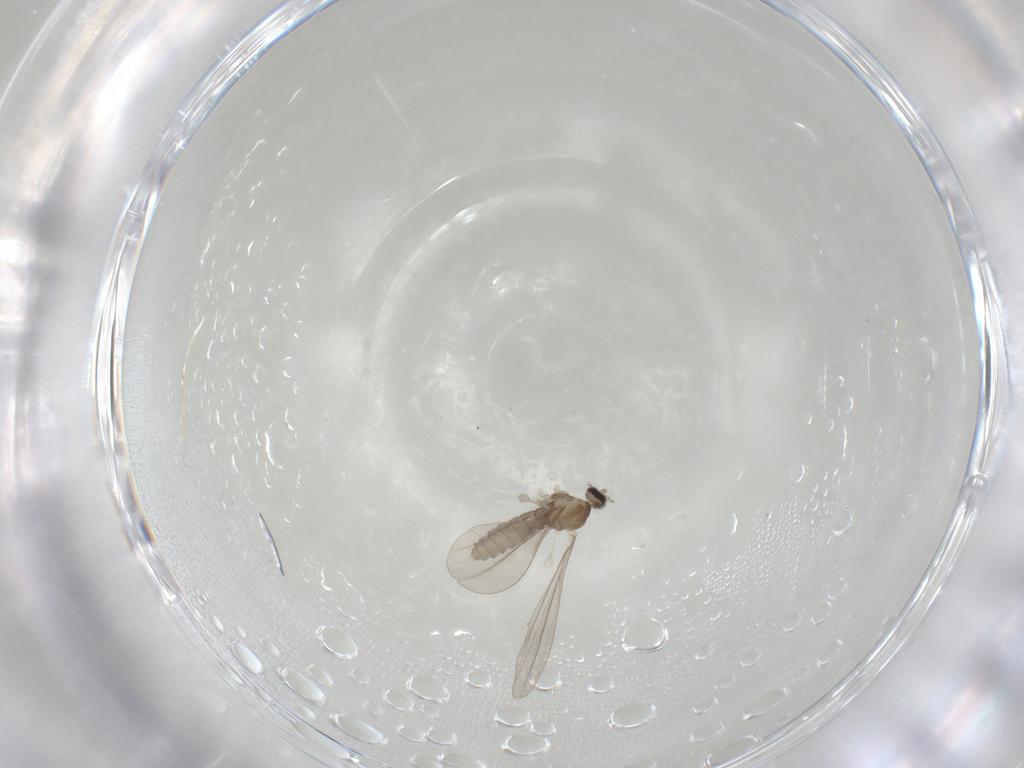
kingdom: Animalia
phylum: Arthropoda
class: Insecta
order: Diptera
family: Cecidomyiidae
